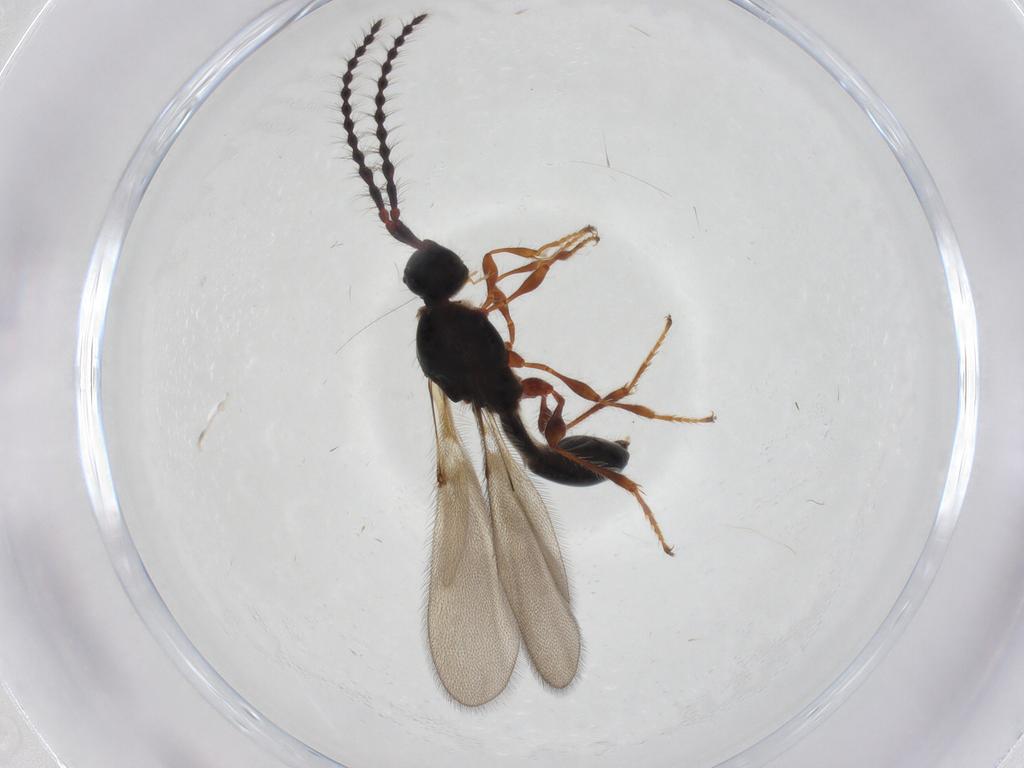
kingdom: Animalia
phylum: Arthropoda
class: Insecta
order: Hymenoptera
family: Diapriidae
